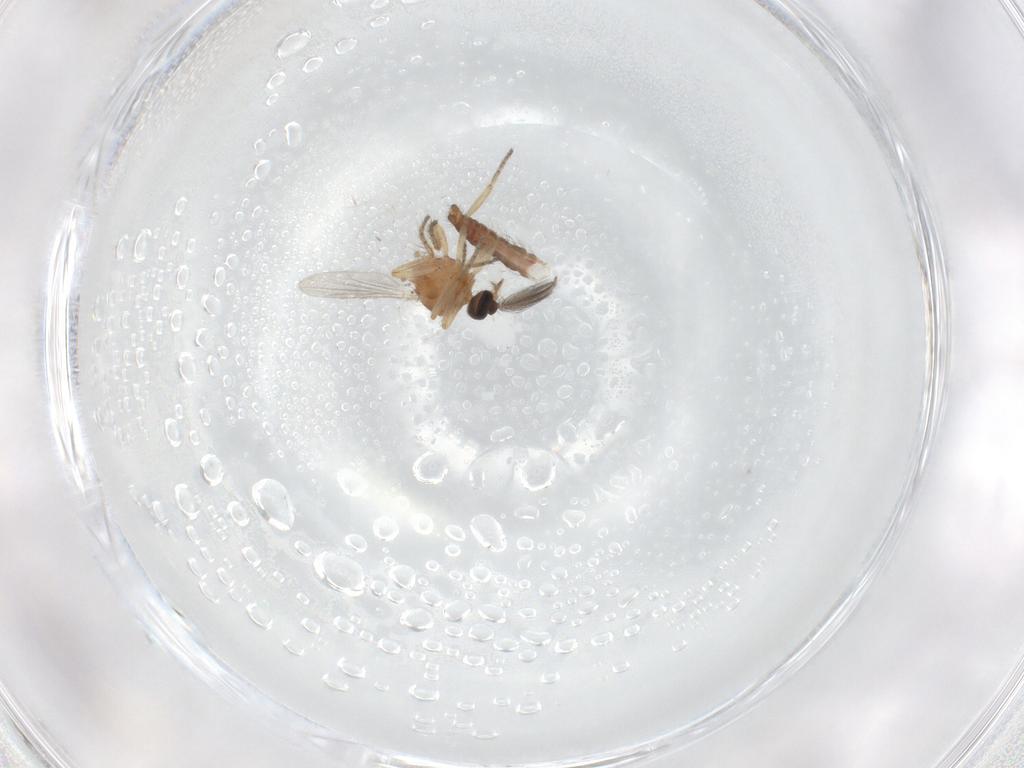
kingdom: Animalia
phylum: Arthropoda
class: Insecta
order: Diptera
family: Ceratopogonidae
